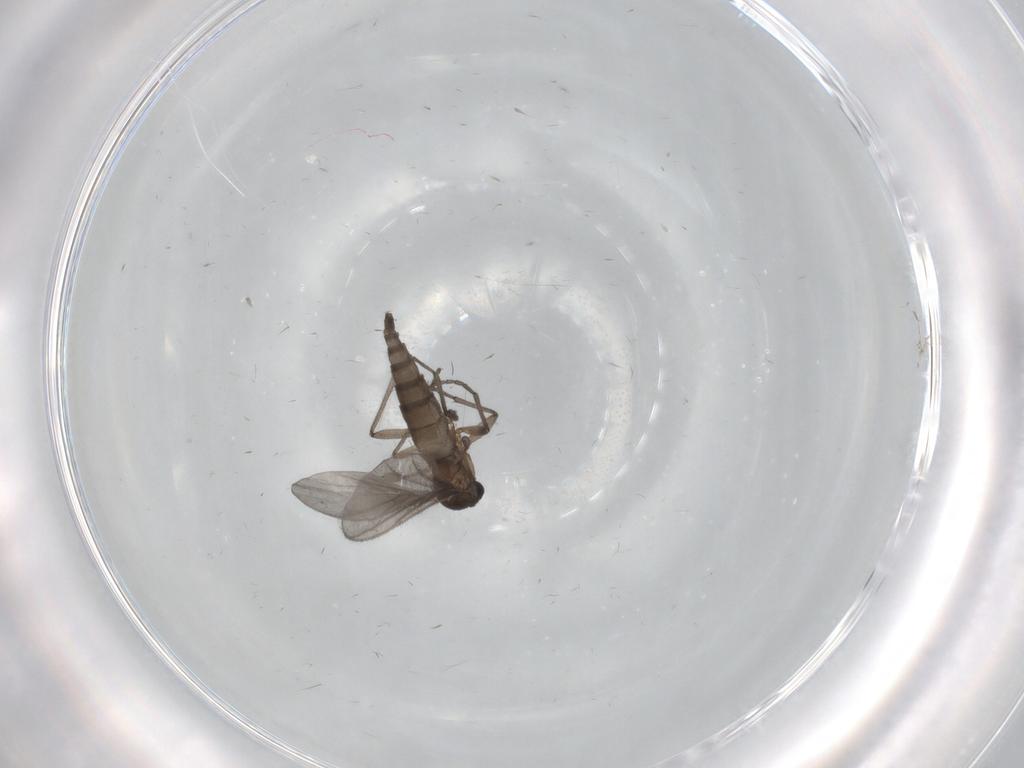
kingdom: Animalia
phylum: Arthropoda
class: Insecta
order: Diptera
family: Sciaridae
